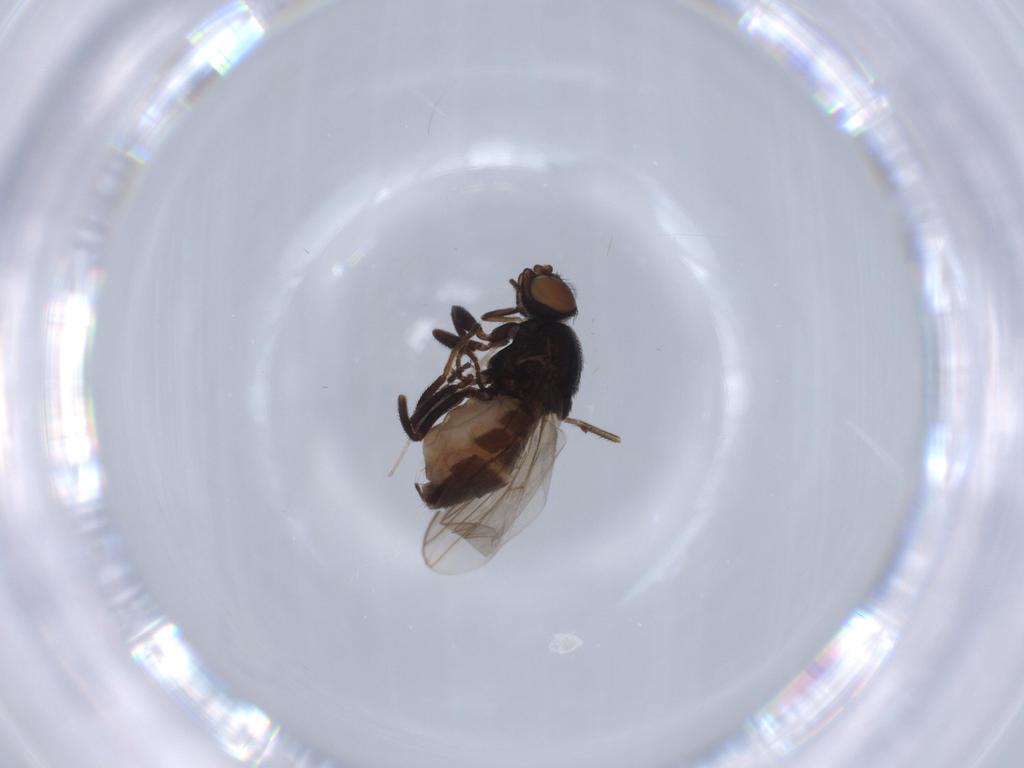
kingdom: Animalia
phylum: Arthropoda
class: Insecta
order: Diptera
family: Chloropidae
